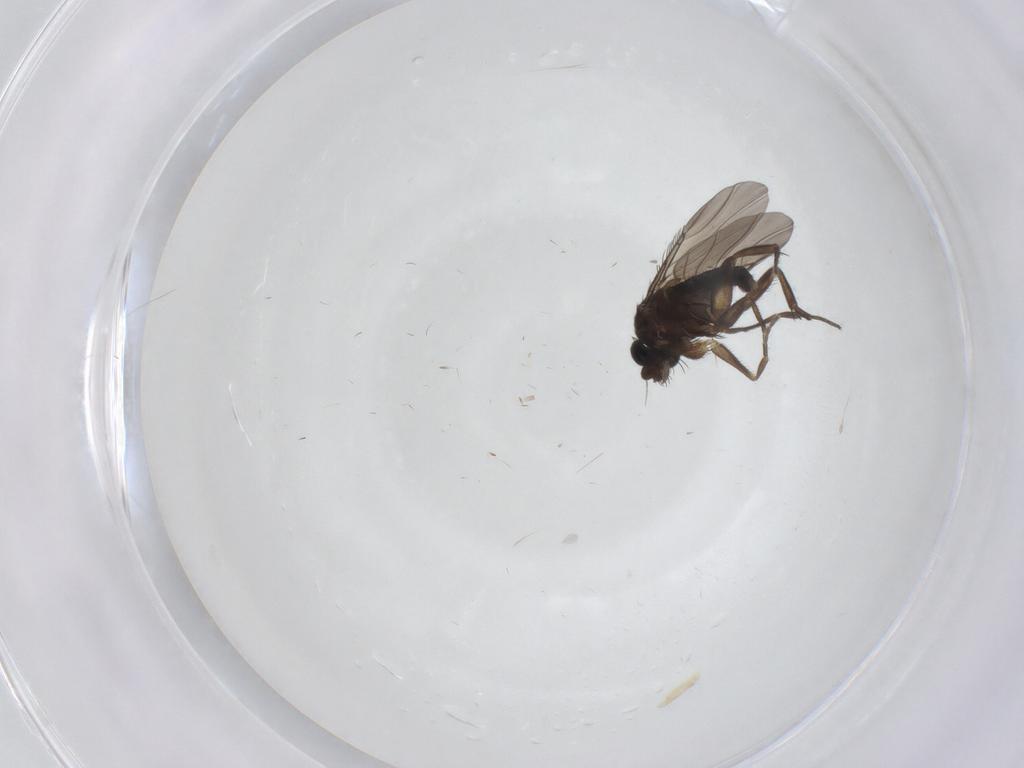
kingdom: Animalia
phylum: Arthropoda
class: Insecta
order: Diptera
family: Phoridae
